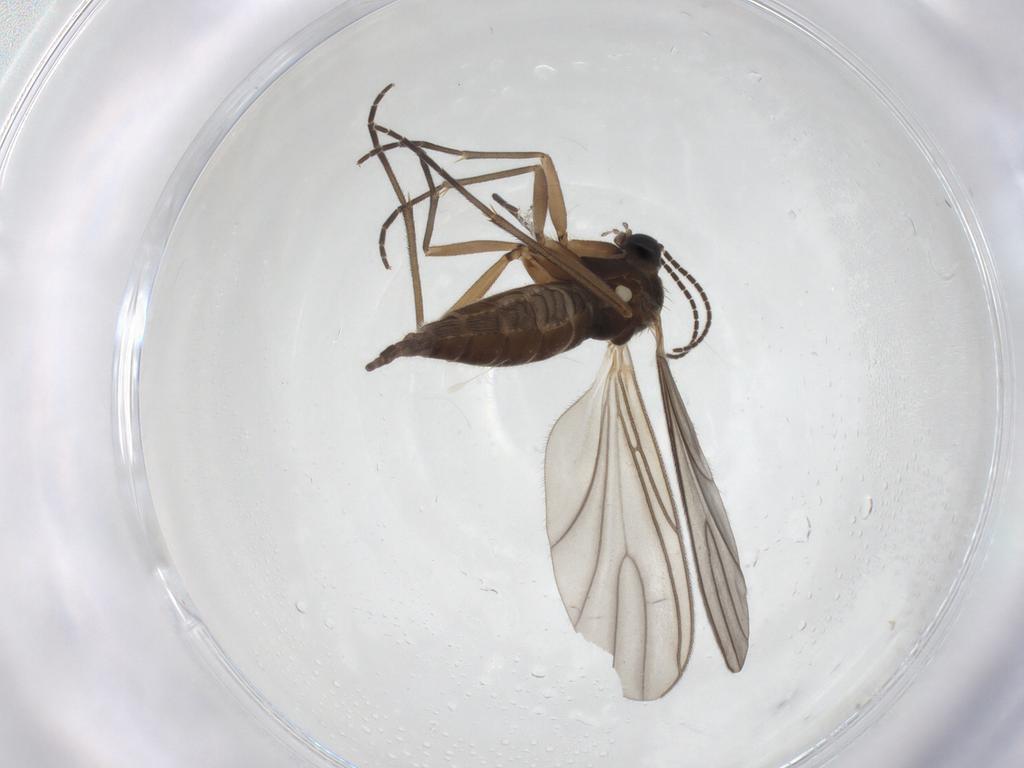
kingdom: Animalia
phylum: Arthropoda
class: Insecta
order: Diptera
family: Sciaridae
